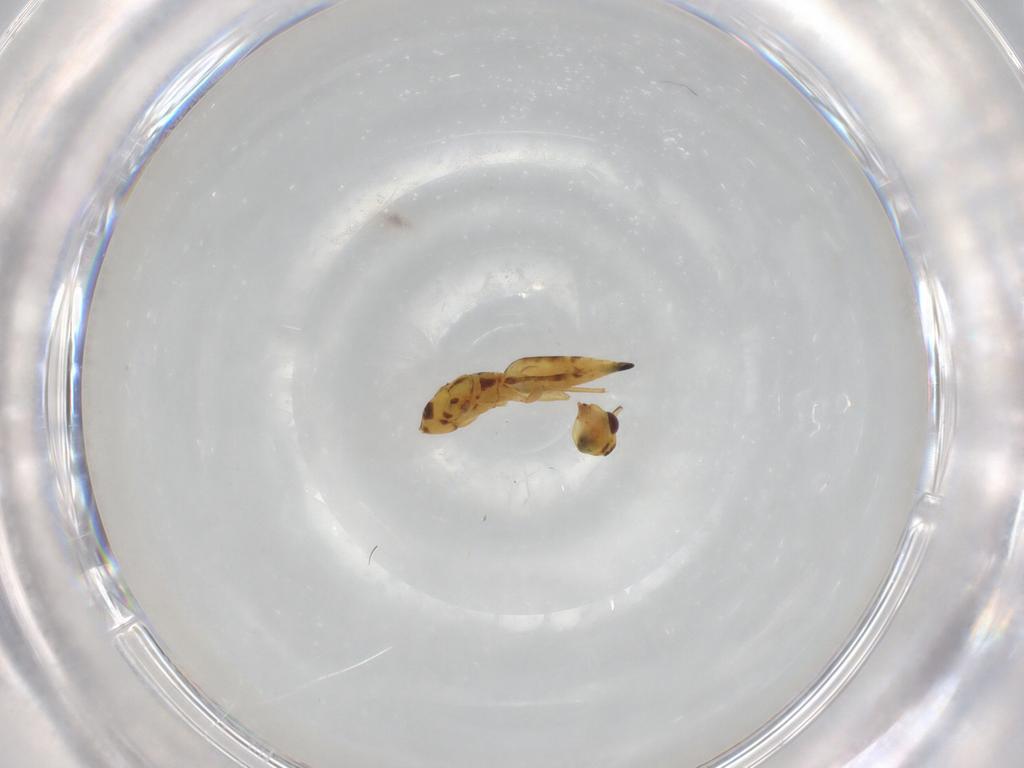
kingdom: Animalia
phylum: Arthropoda
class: Insecta
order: Hymenoptera
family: Eulophidae
